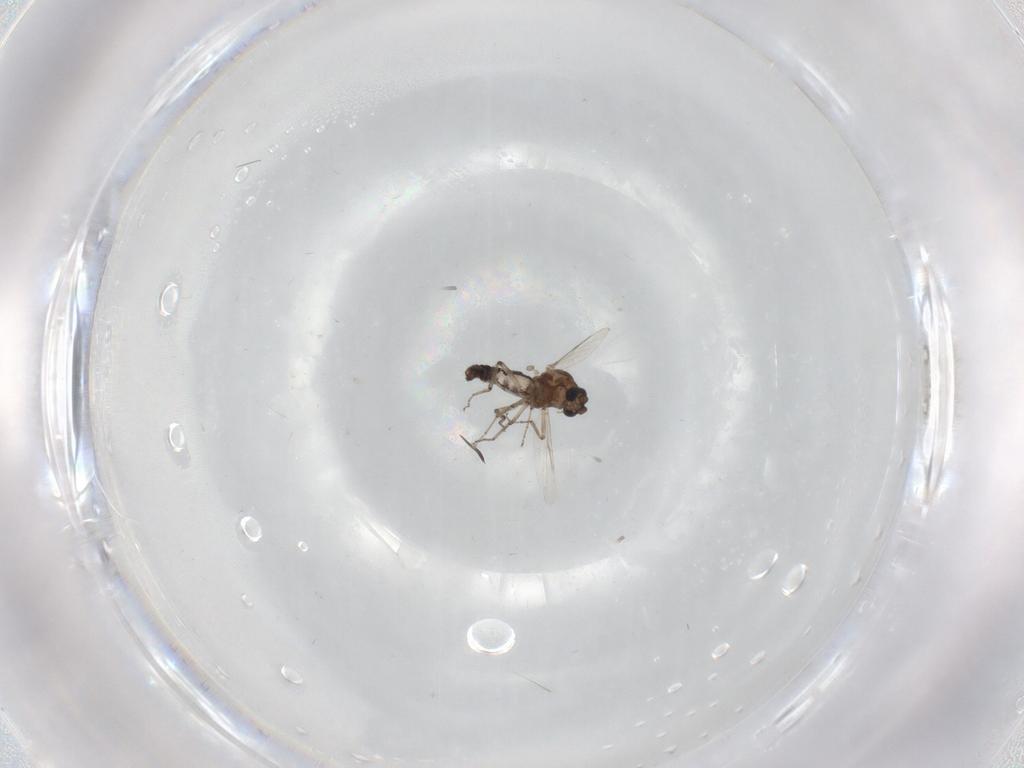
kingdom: Animalia
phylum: Arthropoda
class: Insecta
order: Diptera
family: Ceratopogonidae
